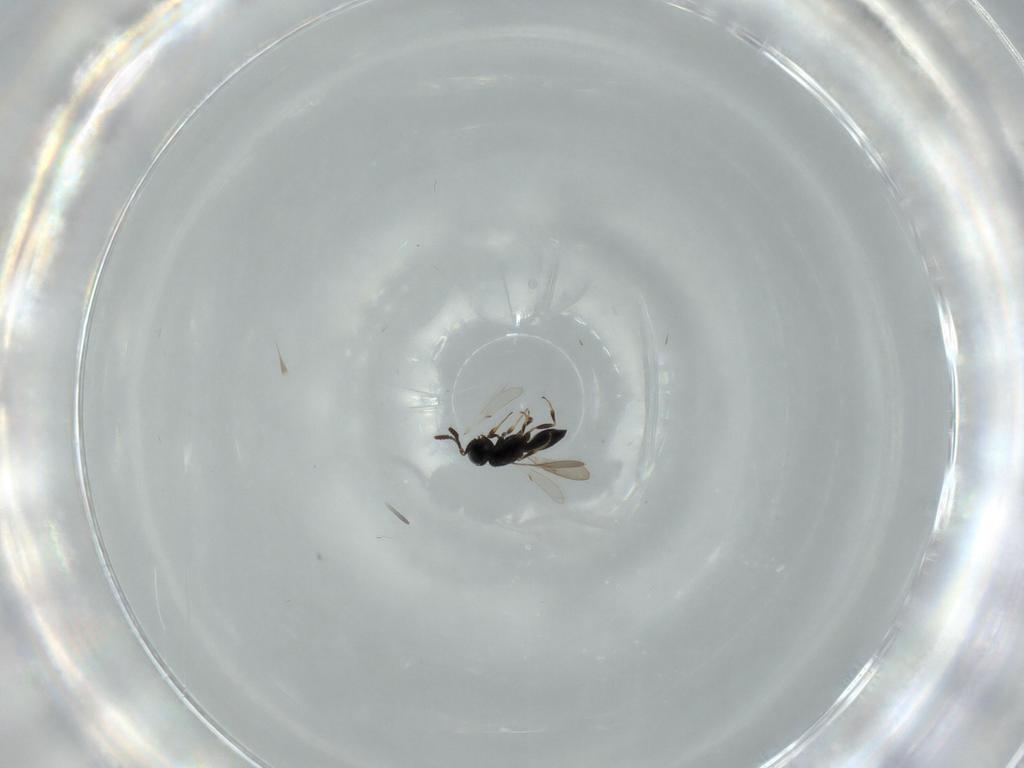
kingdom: Animalia
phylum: Arthropoda
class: Insecta
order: Hymenoptera
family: Scelionidae
